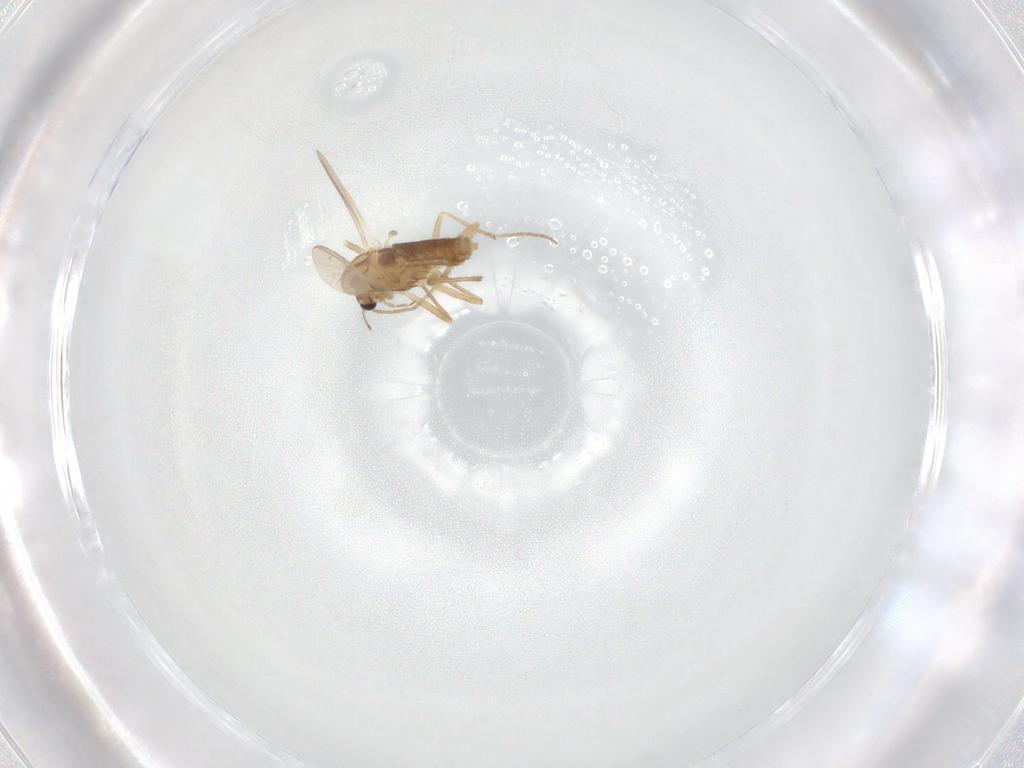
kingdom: Animalia
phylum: Arthropoda
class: Insecta
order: Diptera
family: Chironomidae
